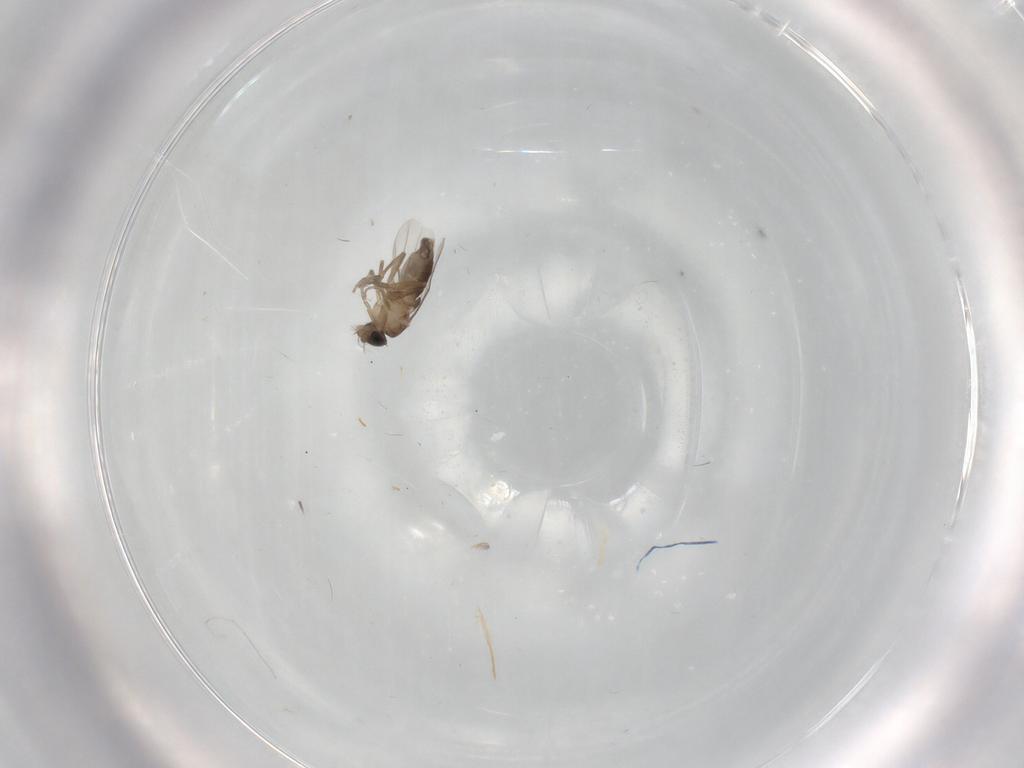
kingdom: Animalia
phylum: Arthropoda
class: Insecta
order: Diptera
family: Phoridae
